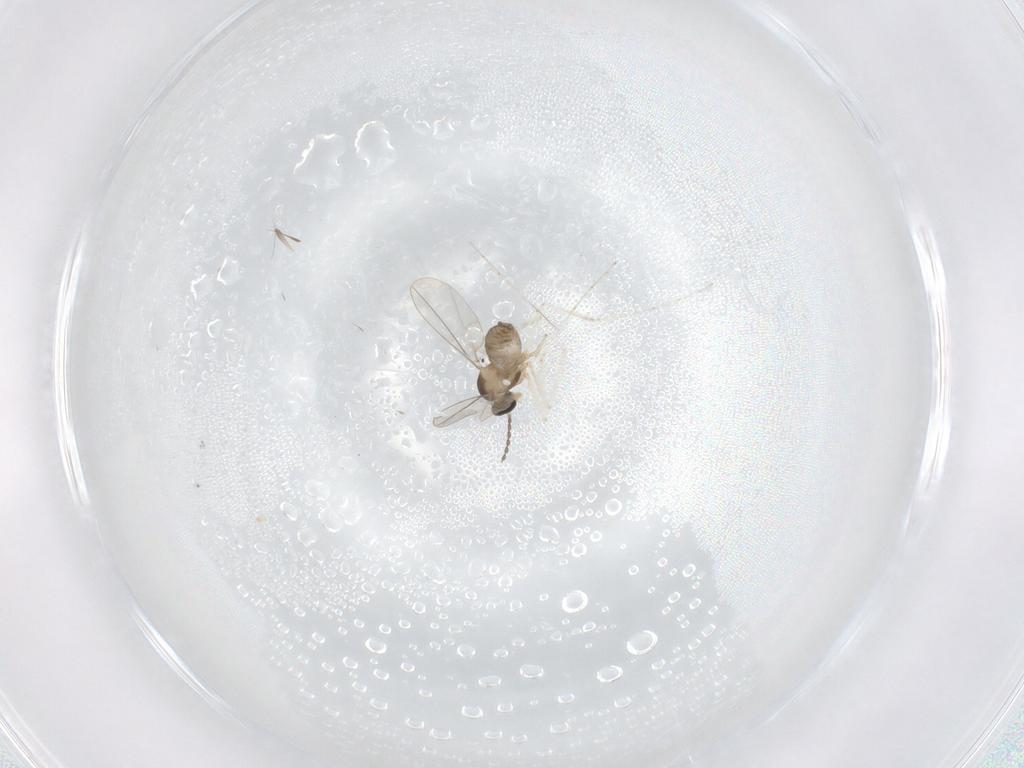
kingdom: Animalia
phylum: Arthropoda
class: Insecta
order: Diptera
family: Cecidomyiidae
